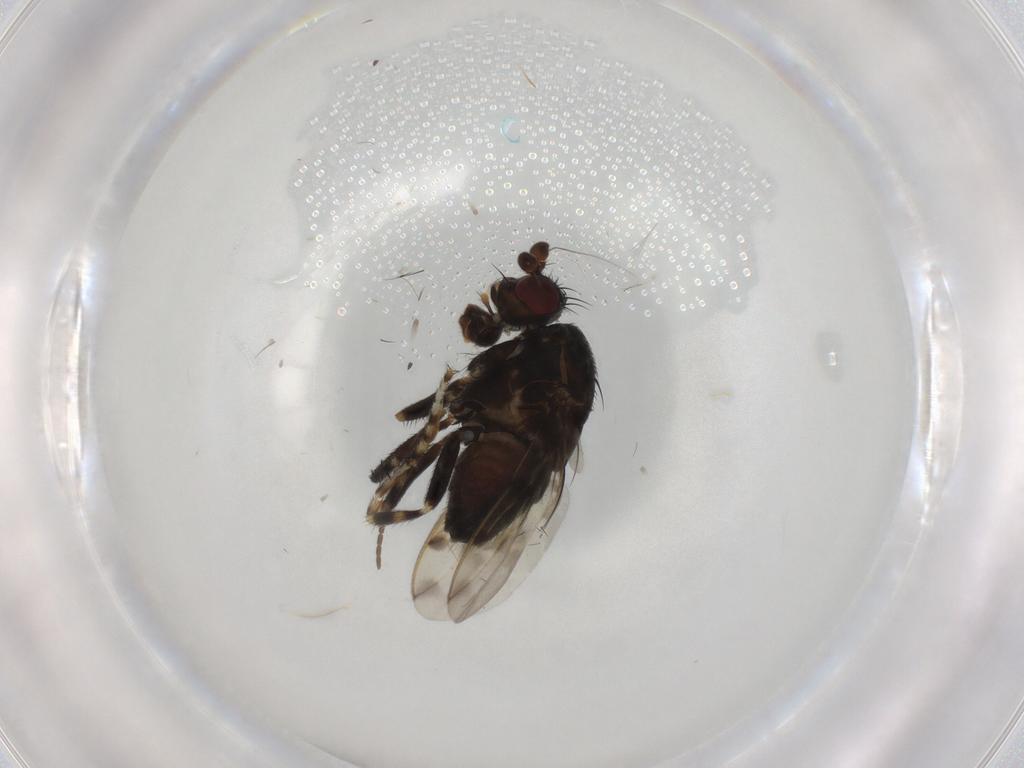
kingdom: Animalia
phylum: Arthropoda
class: Insecta
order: Diptera
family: Sphaeroceridae
